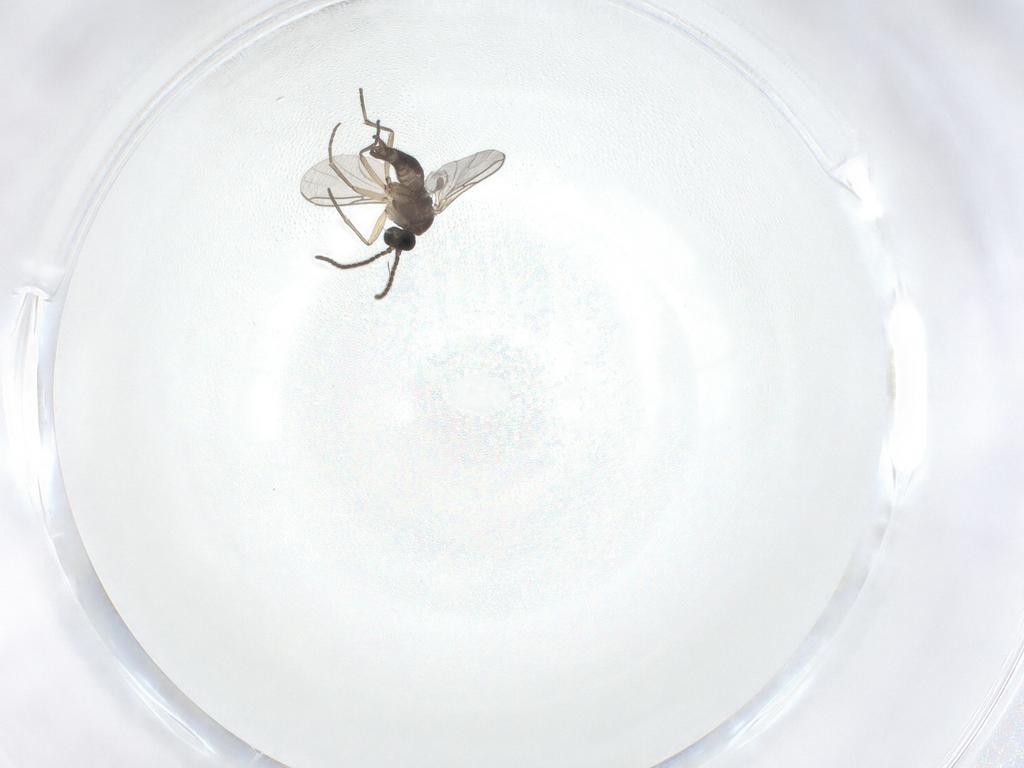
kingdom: Animalia
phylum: Arthropoda
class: Insecta
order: Diptera
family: Sciaridae
